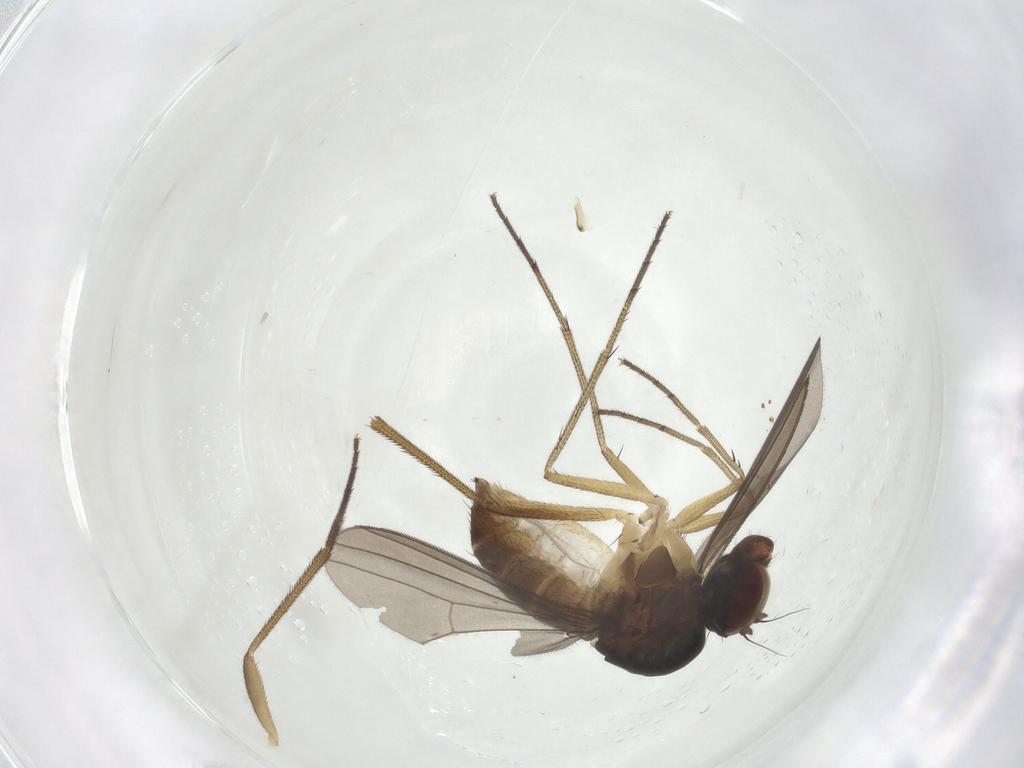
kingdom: Animalia
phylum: Arthropoda
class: Insecta
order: Diptera
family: Dolichopodidae
